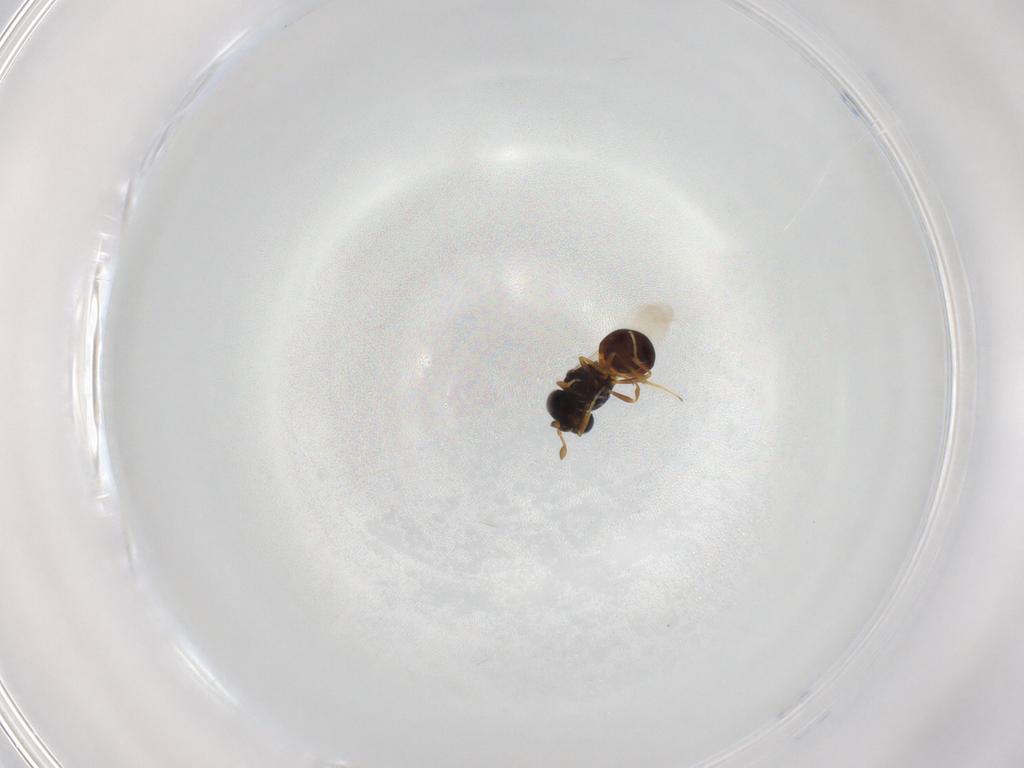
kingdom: Animalia
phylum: Arthropoda
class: Insecta
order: Hymenoptera
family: Scelionidae
